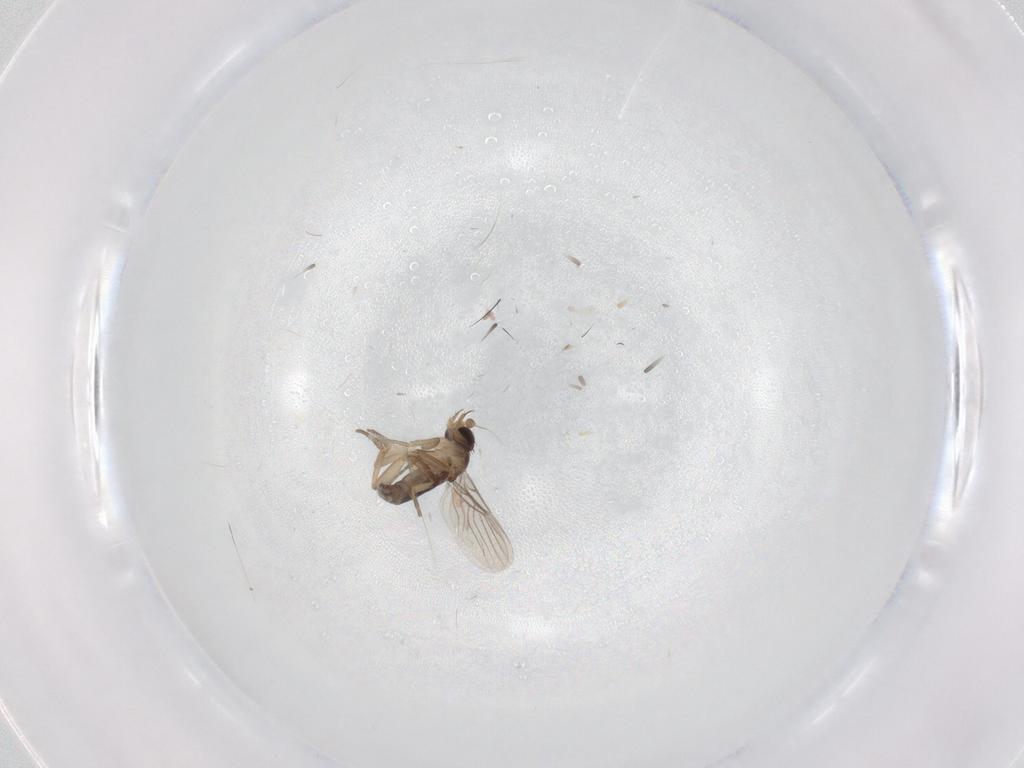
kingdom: Animalia
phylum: Arthropoda
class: Insecta
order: Diptera
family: Phoridae
